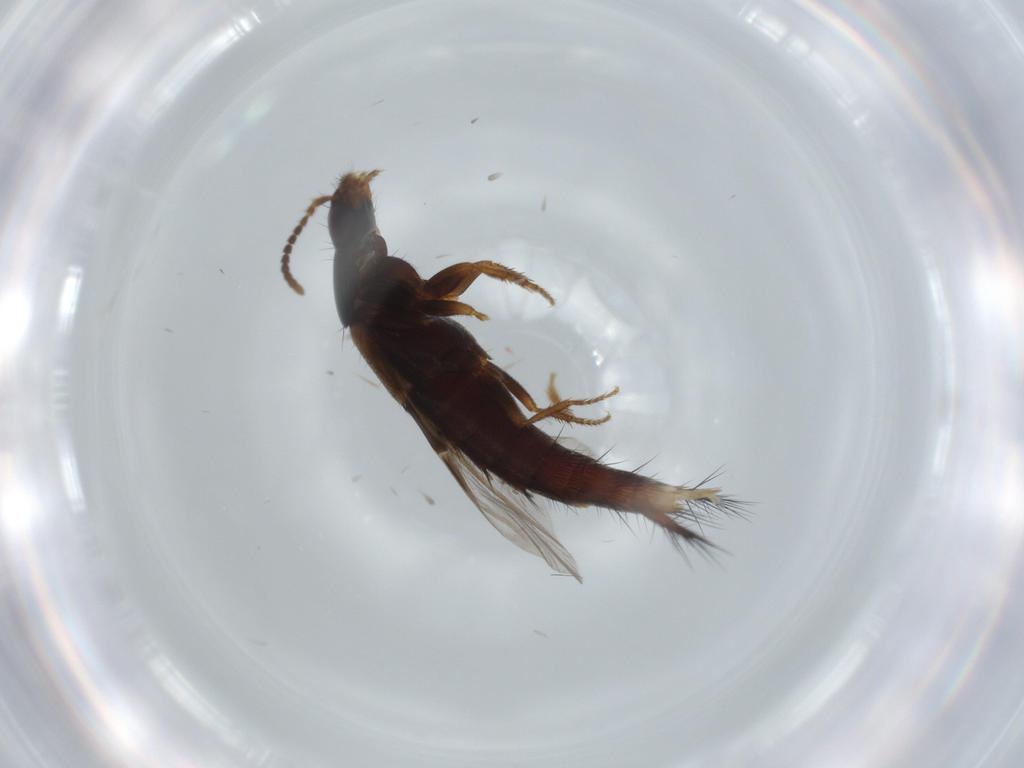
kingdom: Animalia
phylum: Arthropoda
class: Insecta
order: Coleoptera
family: Staphylinidae
